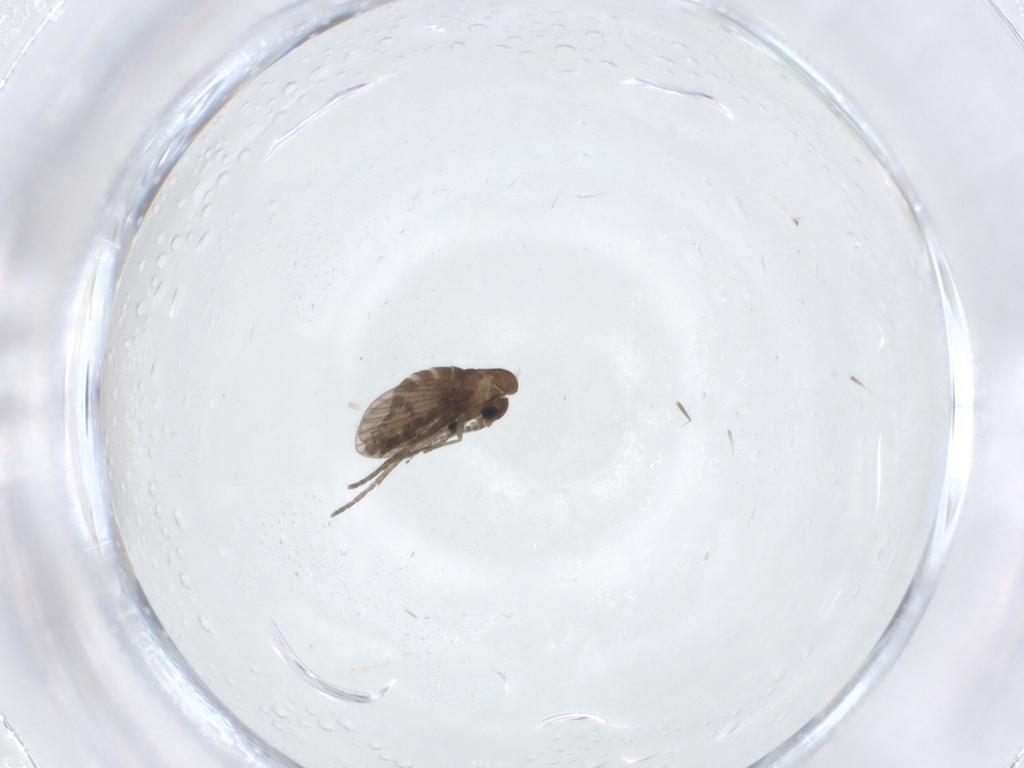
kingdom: Animalia
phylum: Arthropoda
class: Insecta
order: Diptera
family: Cecidomyiidae
